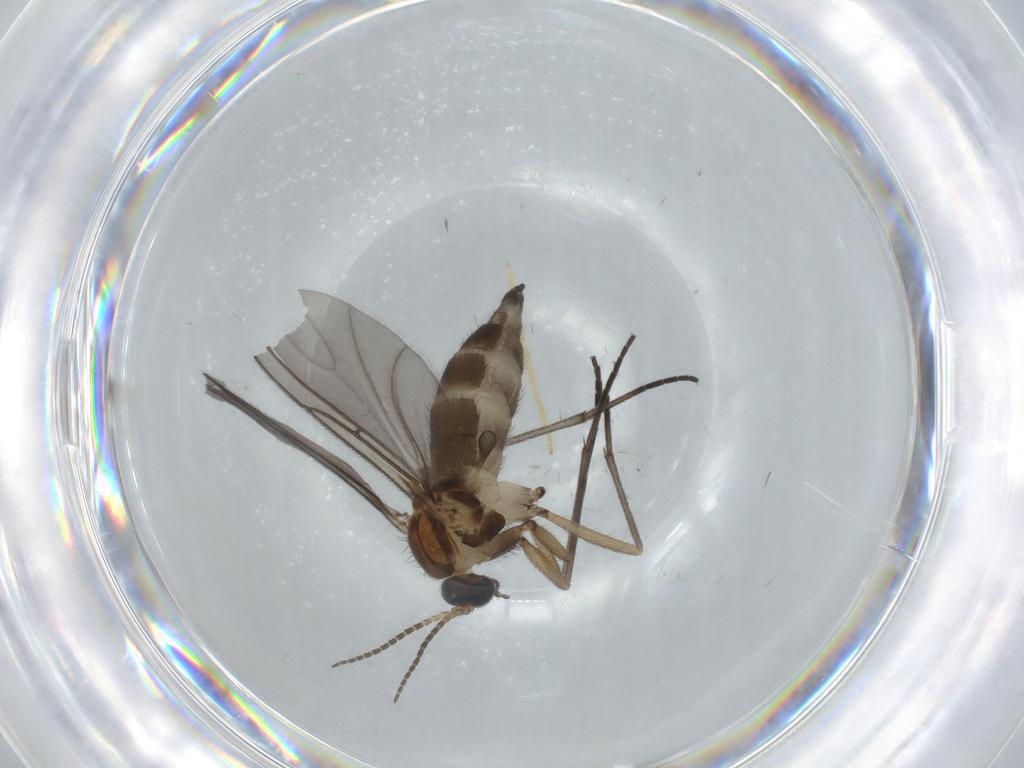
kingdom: Animalia
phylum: Arthropoda
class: Insecta
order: Diptera
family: Sciaridae
